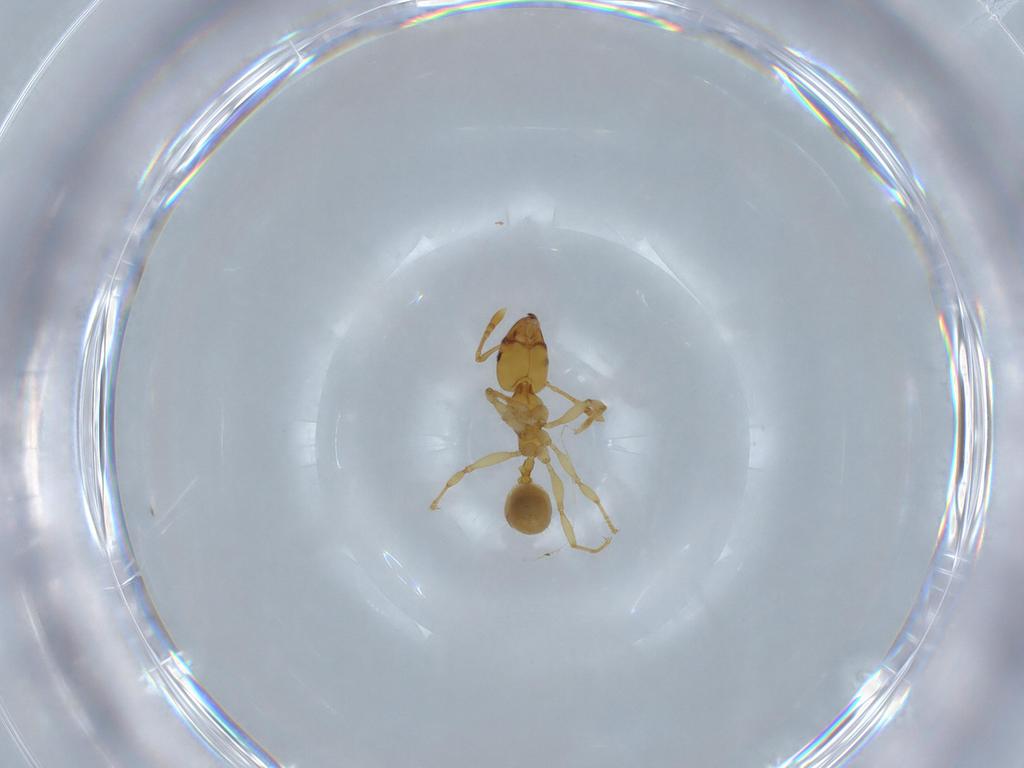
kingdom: Animalia
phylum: Arthropoda
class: Insecta
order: Hymenoptera
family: Formicidae
